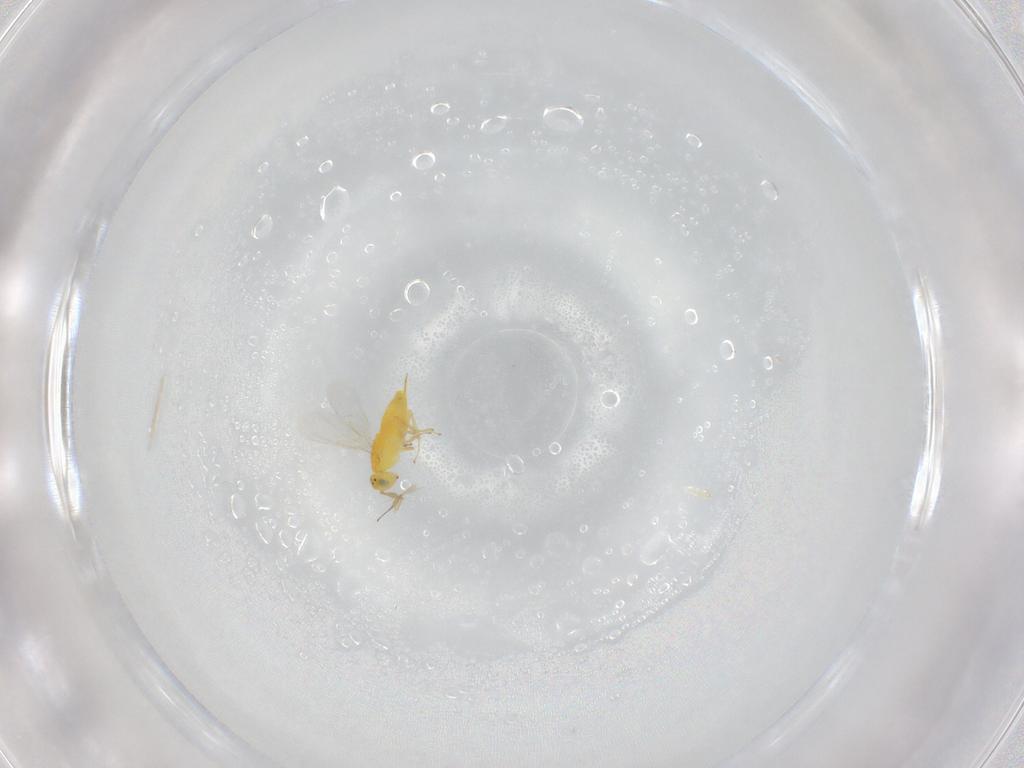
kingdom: Animalia
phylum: Arthropoda
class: Insecta
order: Hymenoptera
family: Aphelinidae
